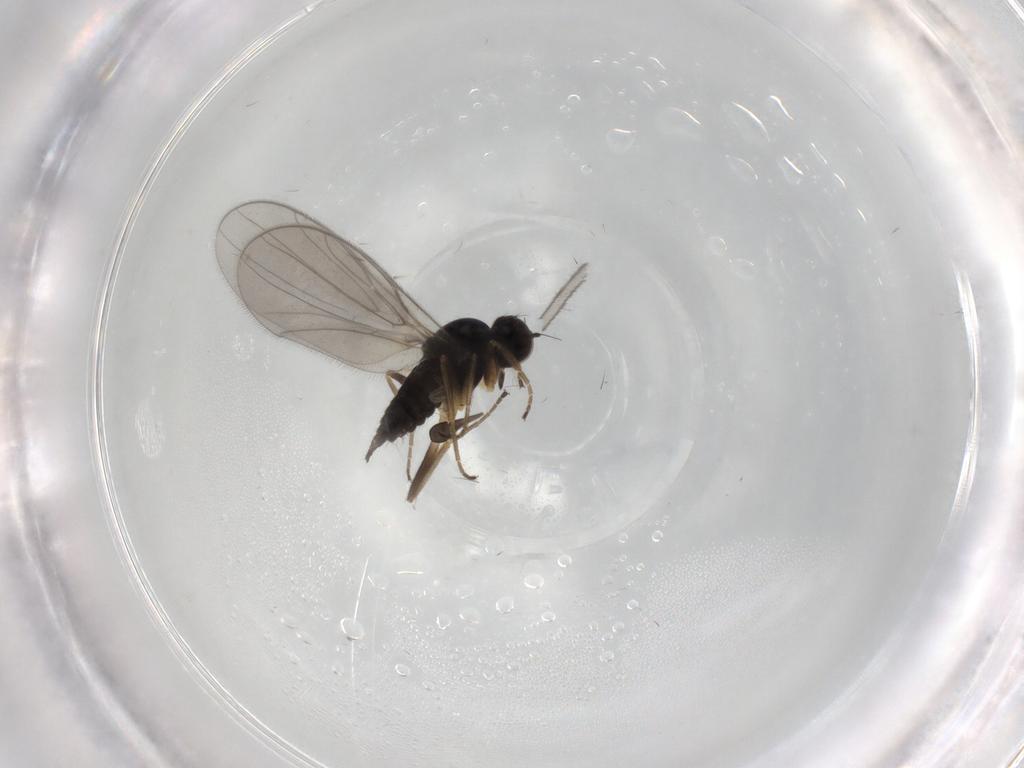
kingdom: Animalia
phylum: Arthropoda
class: Insecta
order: Diptera
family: Hybotidae
